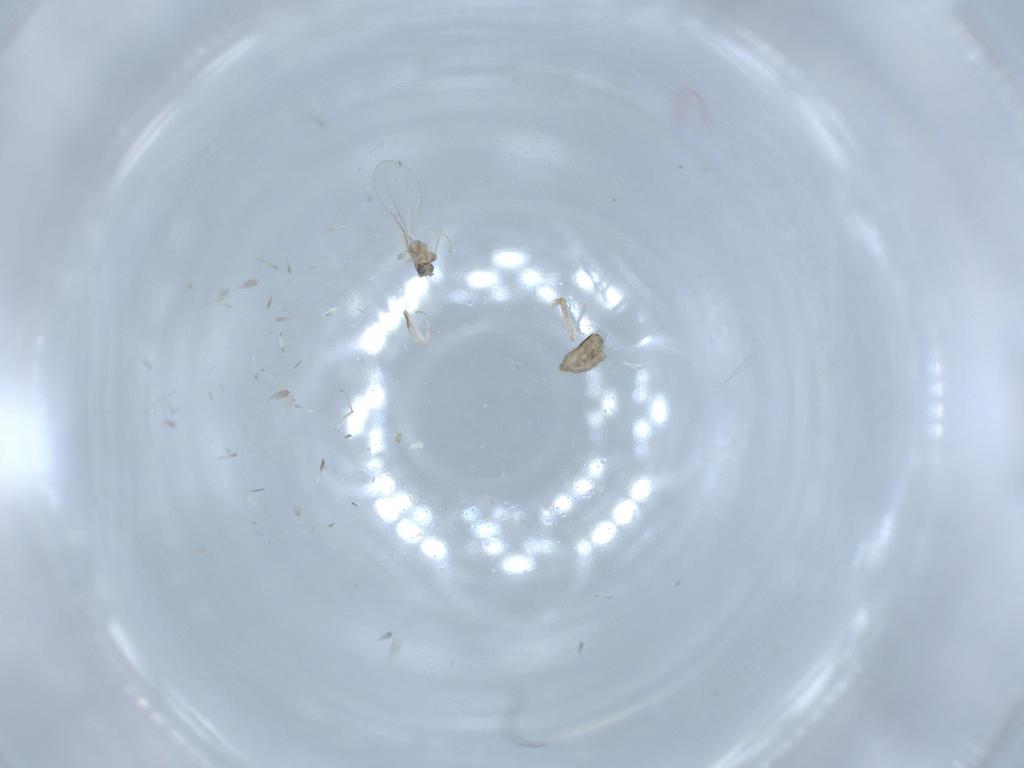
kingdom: Animalia
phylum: Arthropoda
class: Insecta
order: Diptera
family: Cecidomyiidae
